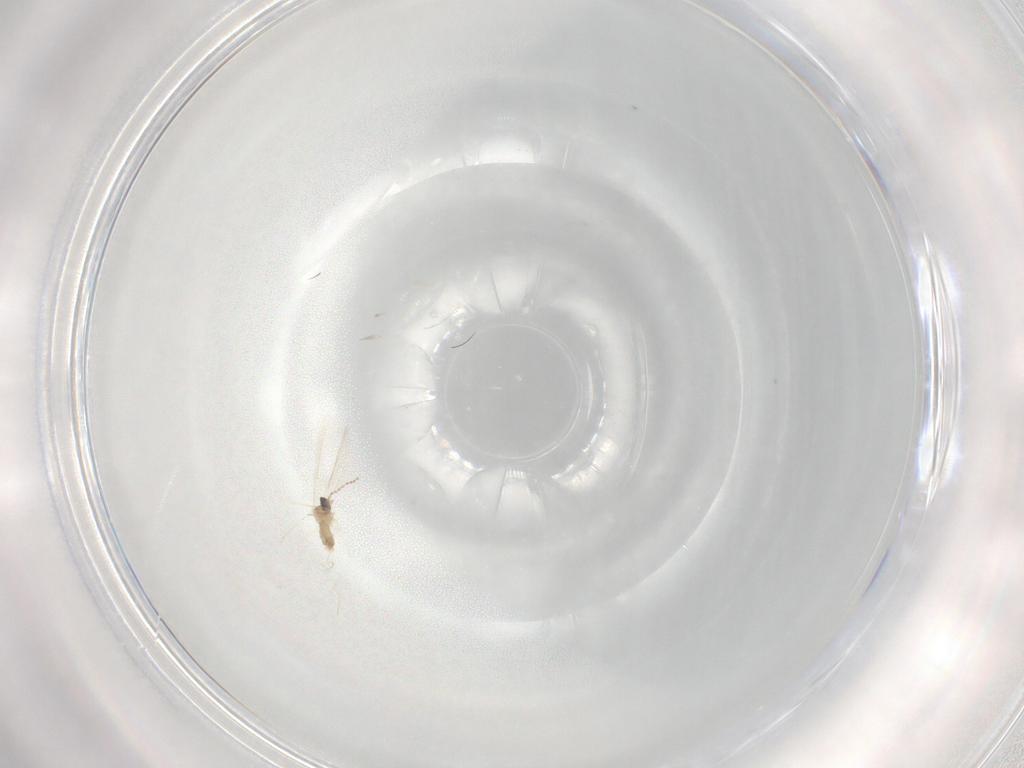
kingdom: Animalia
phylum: Arthropoda
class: Insecta
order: Diptera
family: Cecidomyiidae
